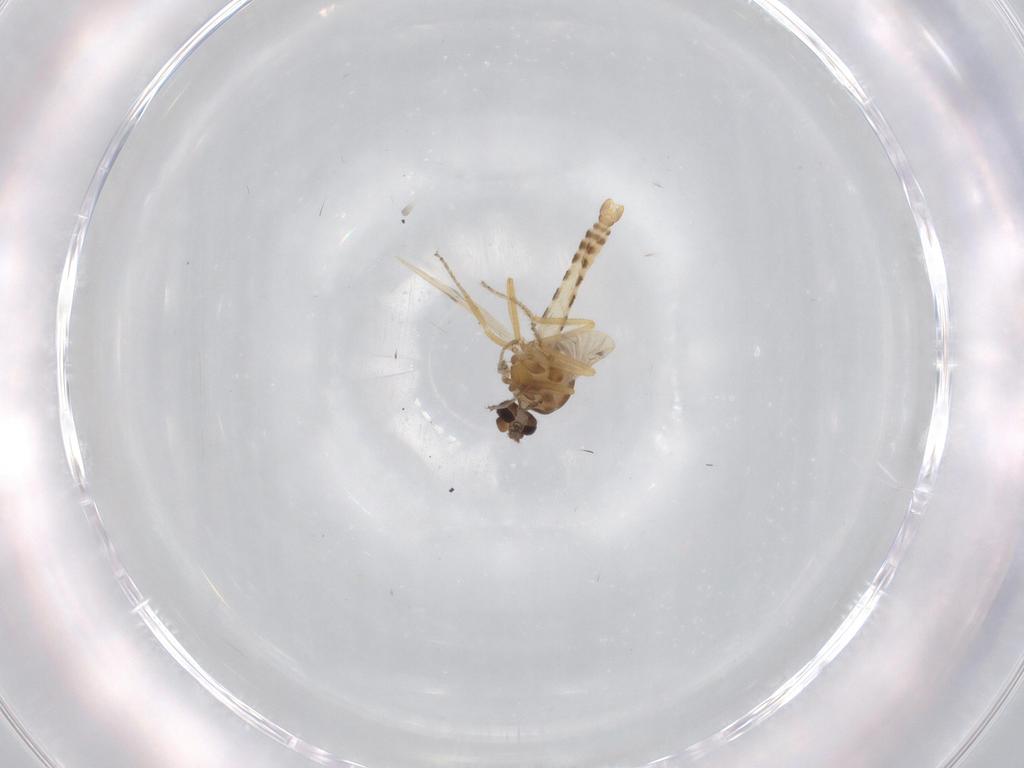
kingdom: Animalia
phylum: Arthropoda
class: Insecta
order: Diptera
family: Ceratopogonidae
